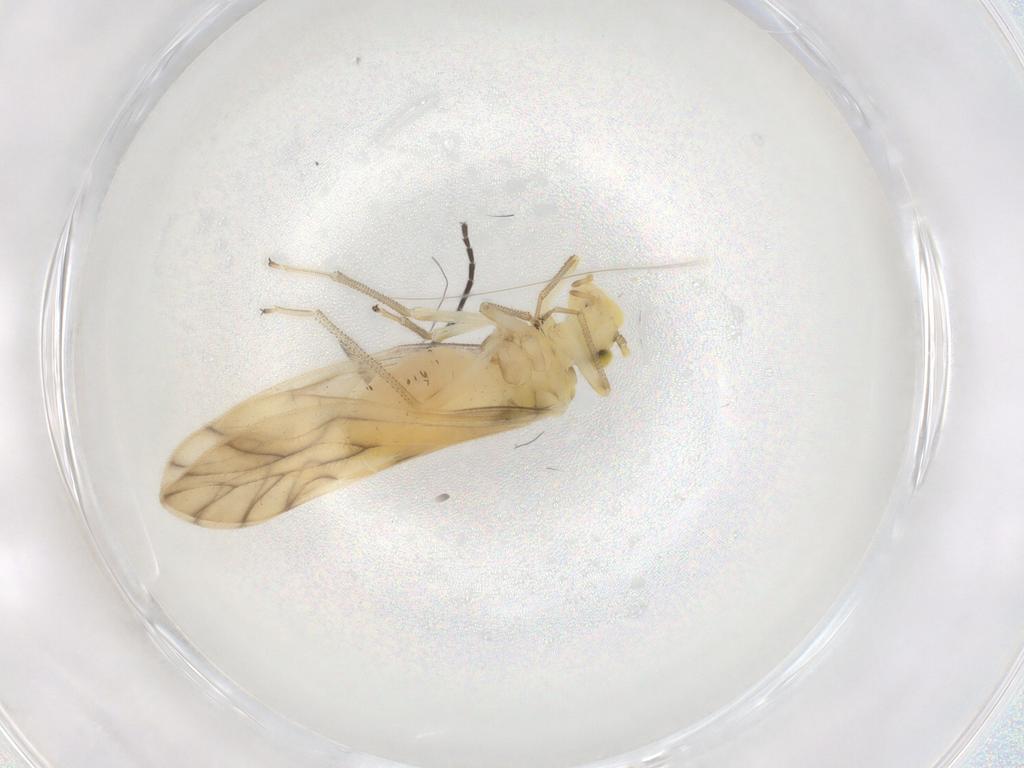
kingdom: Animalia
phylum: Arthropoda
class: Insecta
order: Psocodea
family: Caeciliusidae
